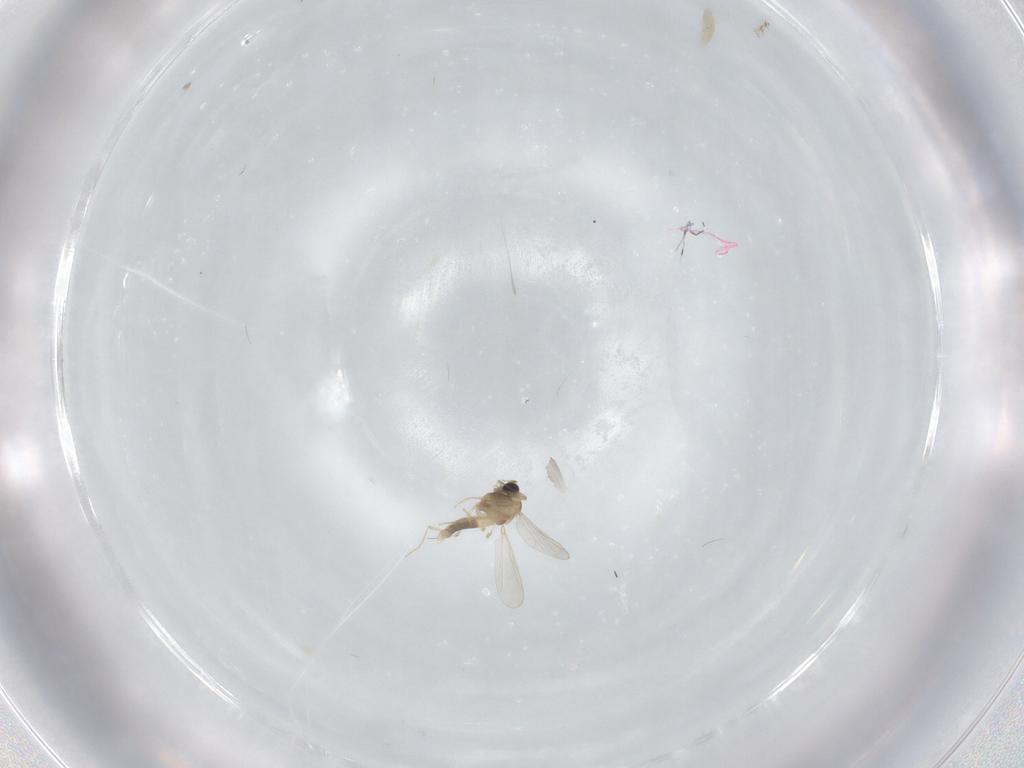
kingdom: Animalia
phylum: Arthropoda
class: Insecta
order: Diptera
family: Chironomidae
